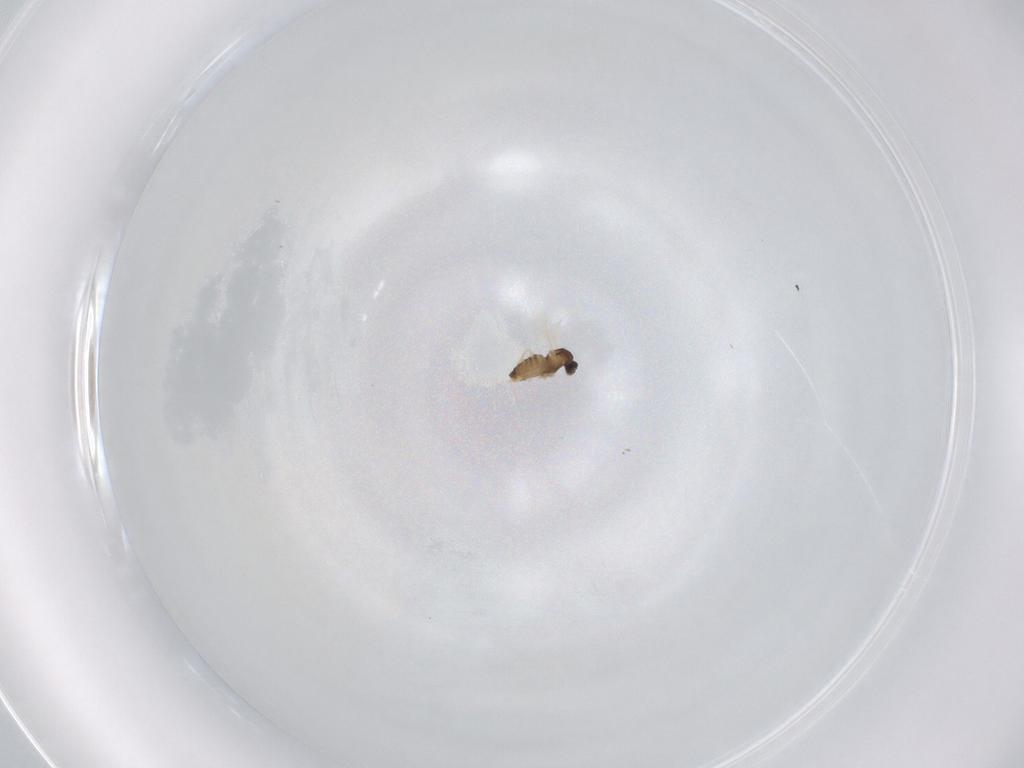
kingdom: Animalia
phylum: Arthropoda
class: Insecta
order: Diptera
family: Cecidomyiidae
